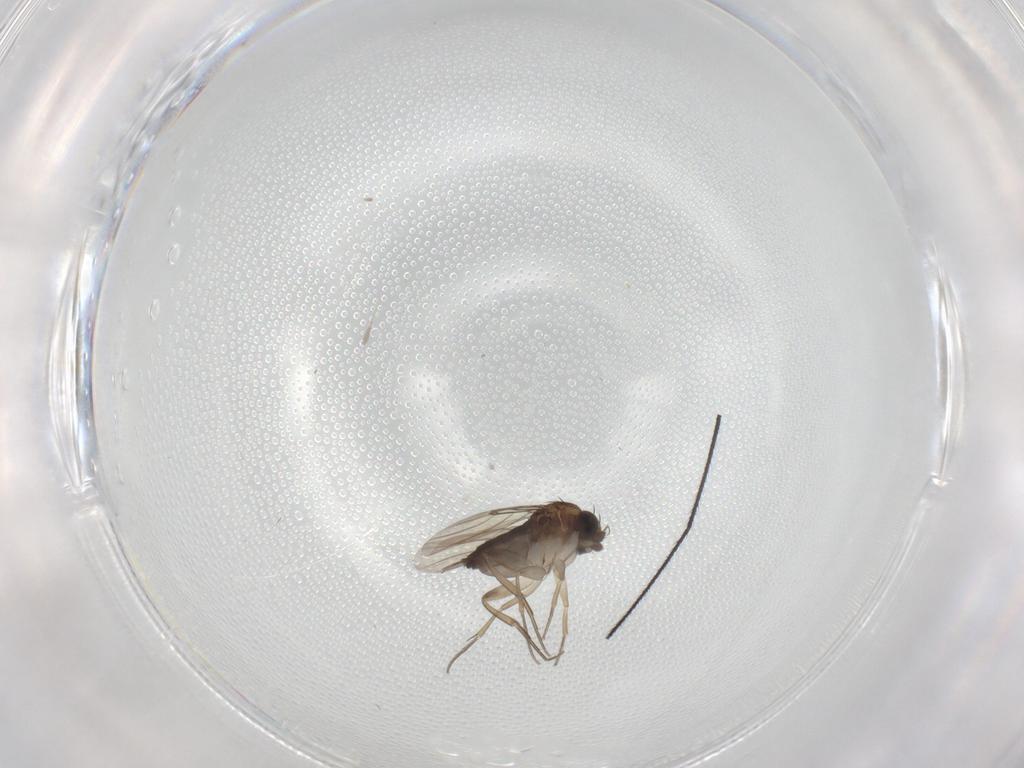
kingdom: Animalia
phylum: Arthropoda
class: Insecta
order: Diptera
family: Phoridae
